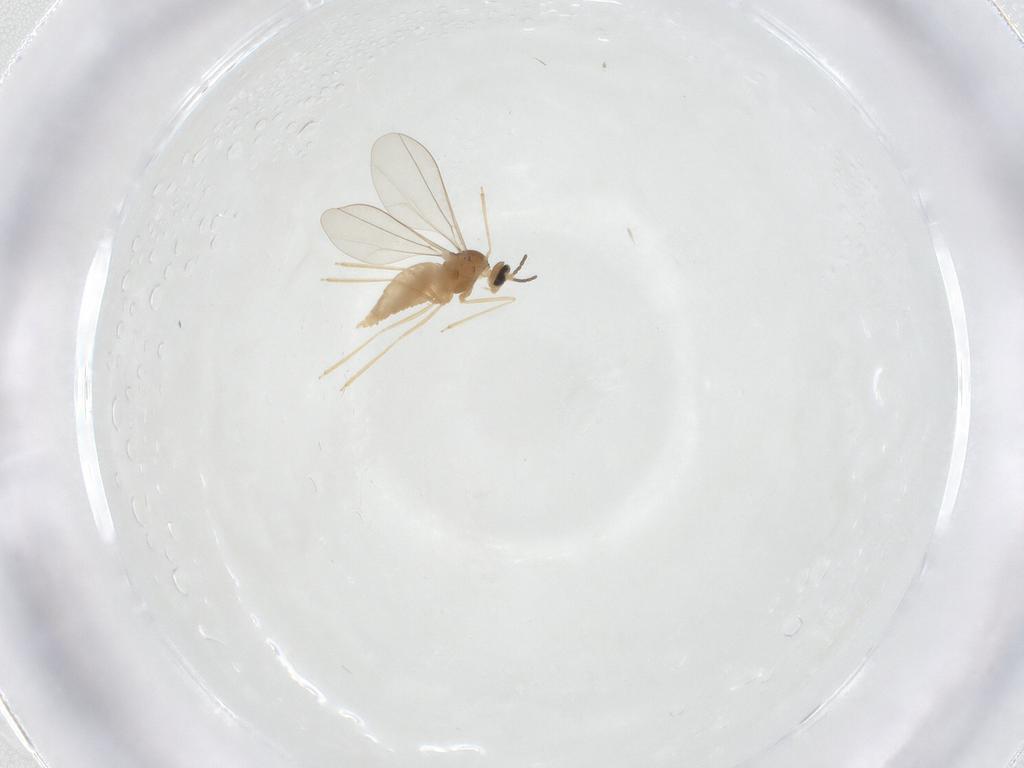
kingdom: Animalia
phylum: Arthropoda
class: Insecta
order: Diptera
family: Cecidomyiidae
